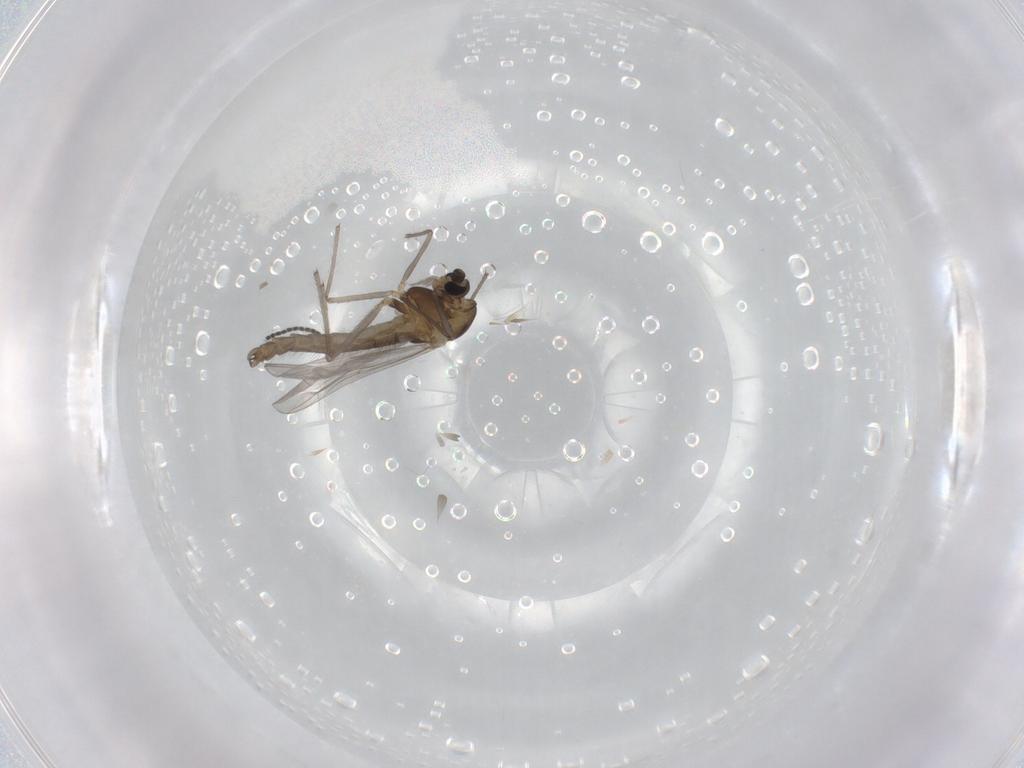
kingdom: Animalia
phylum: Arthropoda
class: Insecta
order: Diptera
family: Chironomidae
